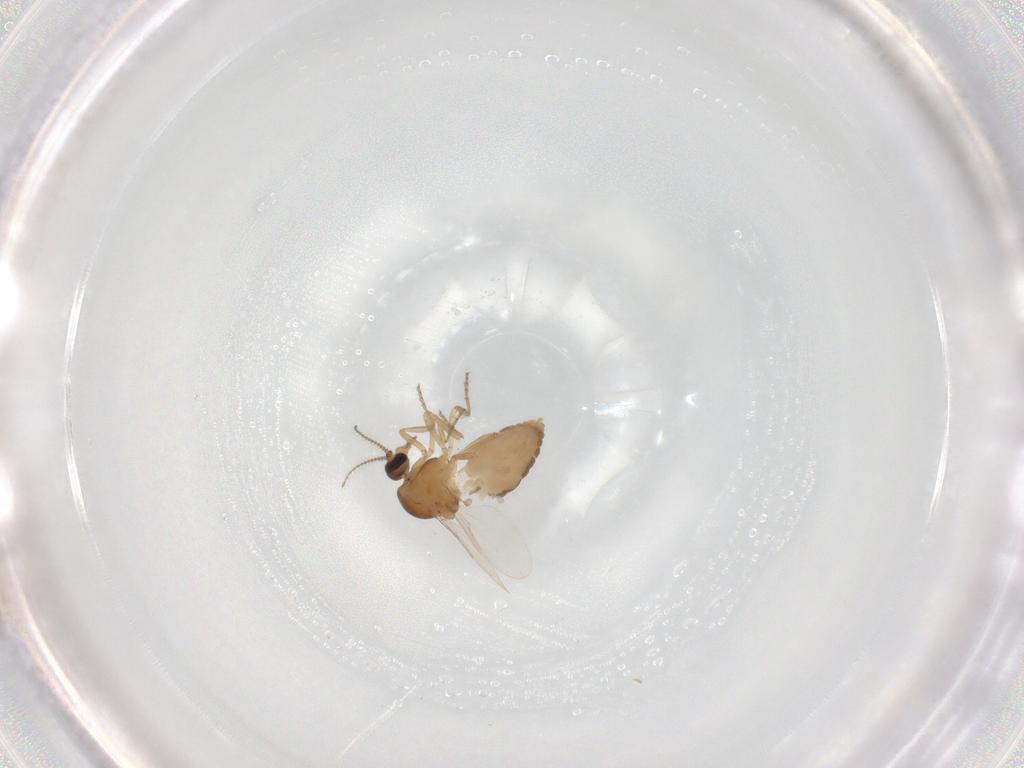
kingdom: Animalia
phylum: Arthropoda
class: Insecta
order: Diptera
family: Ceratopogonidae
